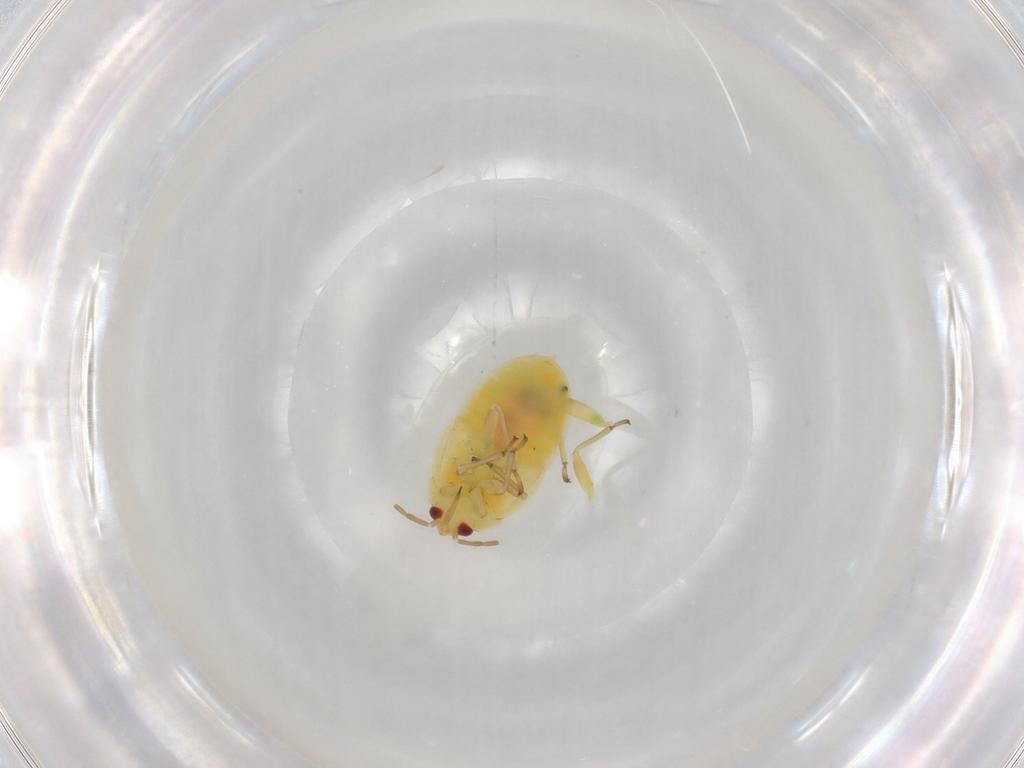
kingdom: Animalia
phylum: Arthropoda
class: Insecta
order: Hemiptera
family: Anthocoridae
